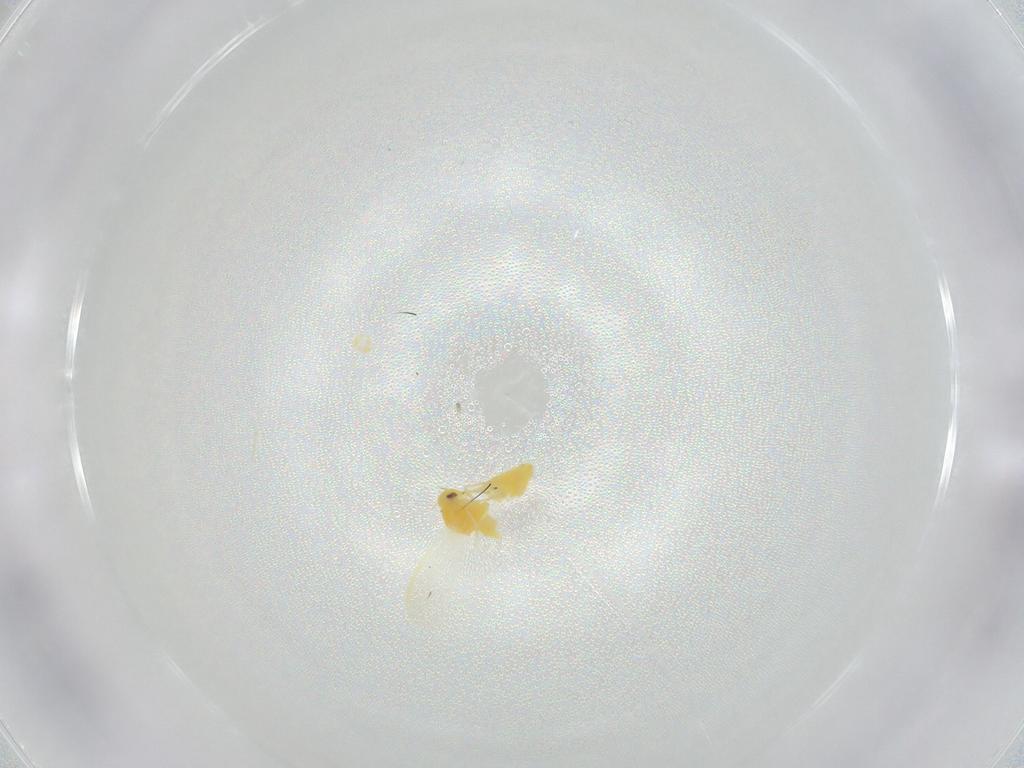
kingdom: Animalia
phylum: Arthropoda
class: Insecta
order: Hemiptera
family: Aleyrodidae
